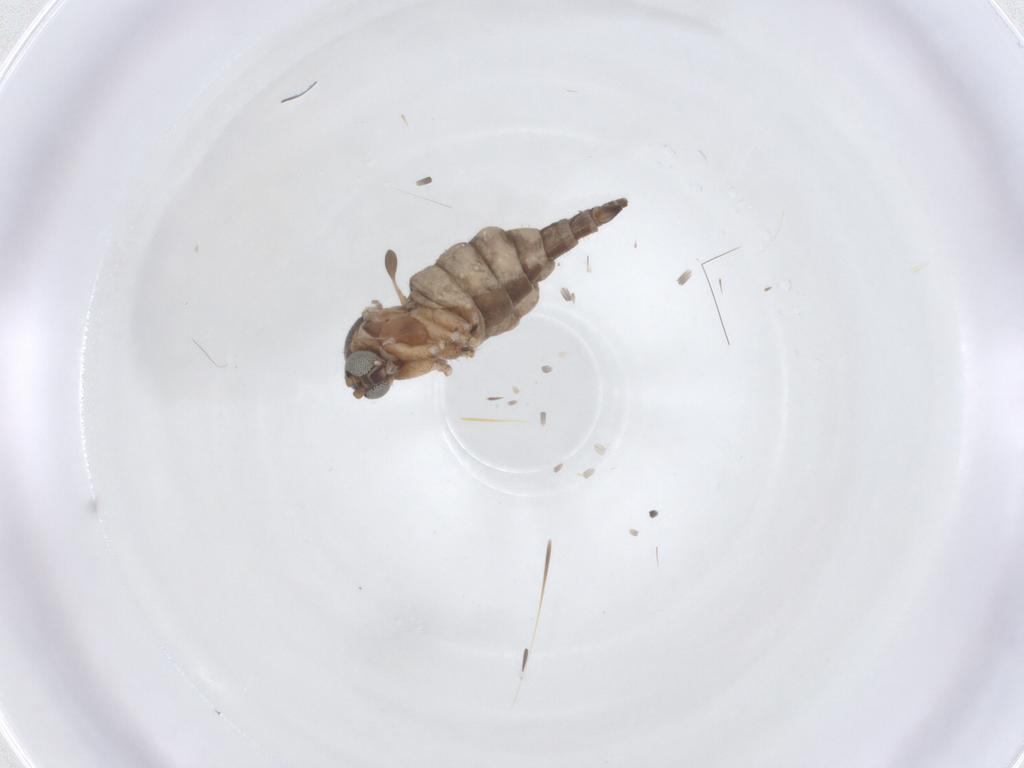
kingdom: Animalia
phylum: Arthropoda
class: Insecta
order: Diptera
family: Sciaridae
